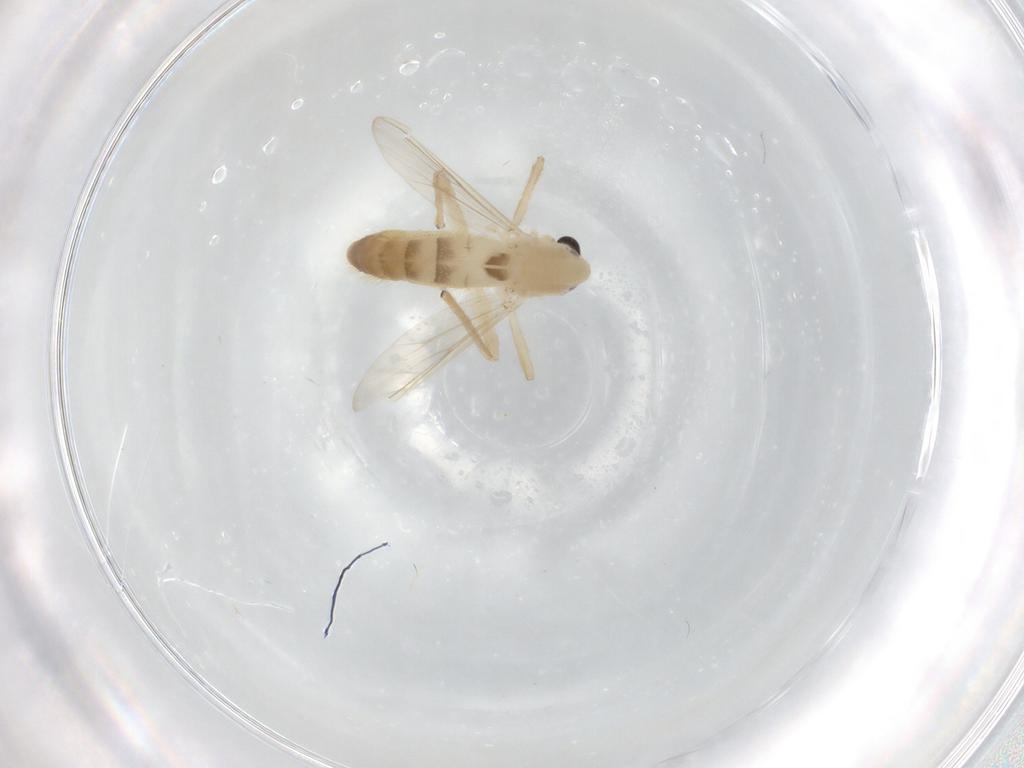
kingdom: Animalia
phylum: Arthropoda
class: Insecta
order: Diptera
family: Chironomidae
